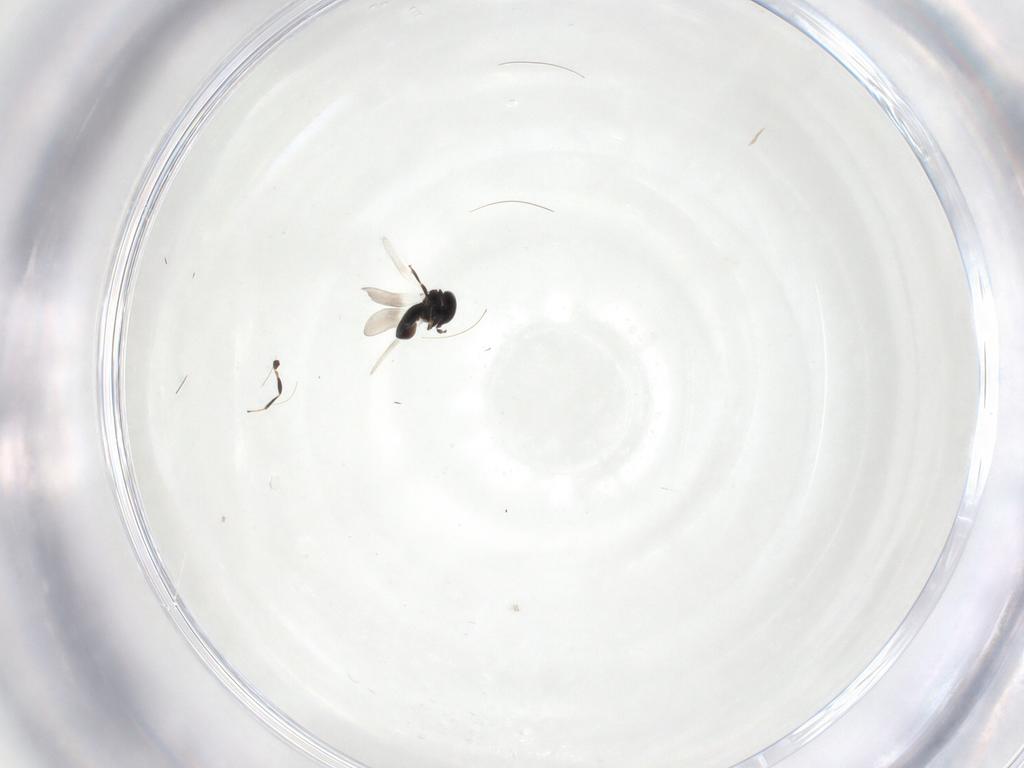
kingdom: Animalia
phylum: Arthropoda
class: Insecta
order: Hymenoptera
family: Platygastridae
